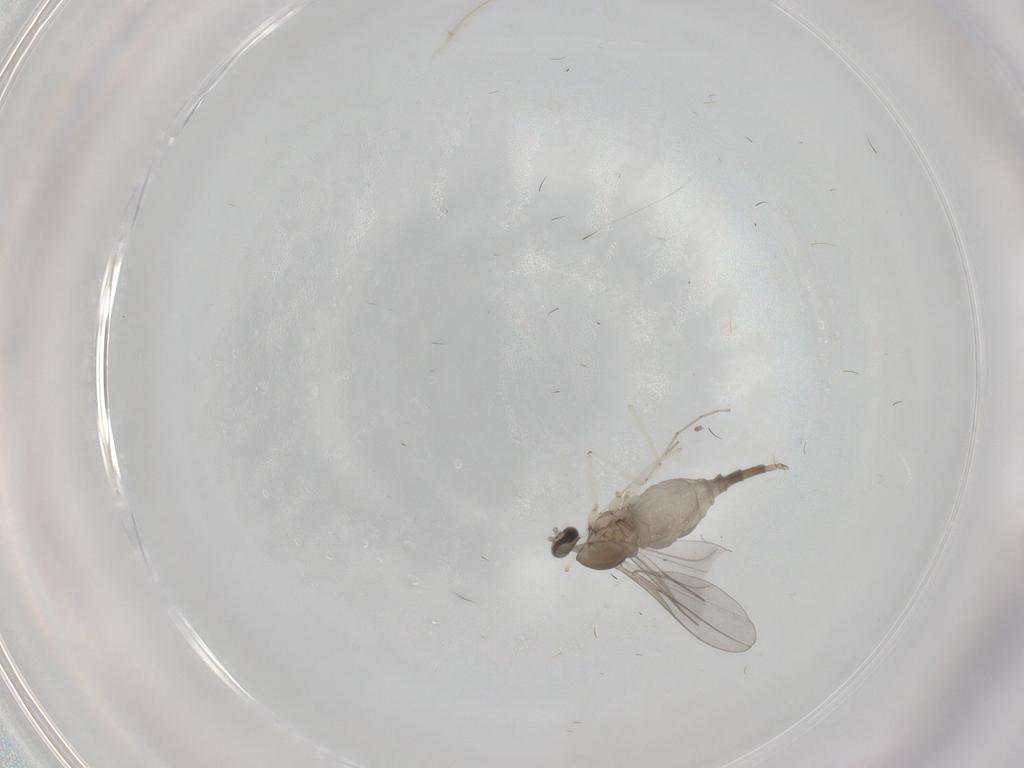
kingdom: Animalia
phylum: Arthropoda
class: Insecta
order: Diptera
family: Cecidomyiidae
